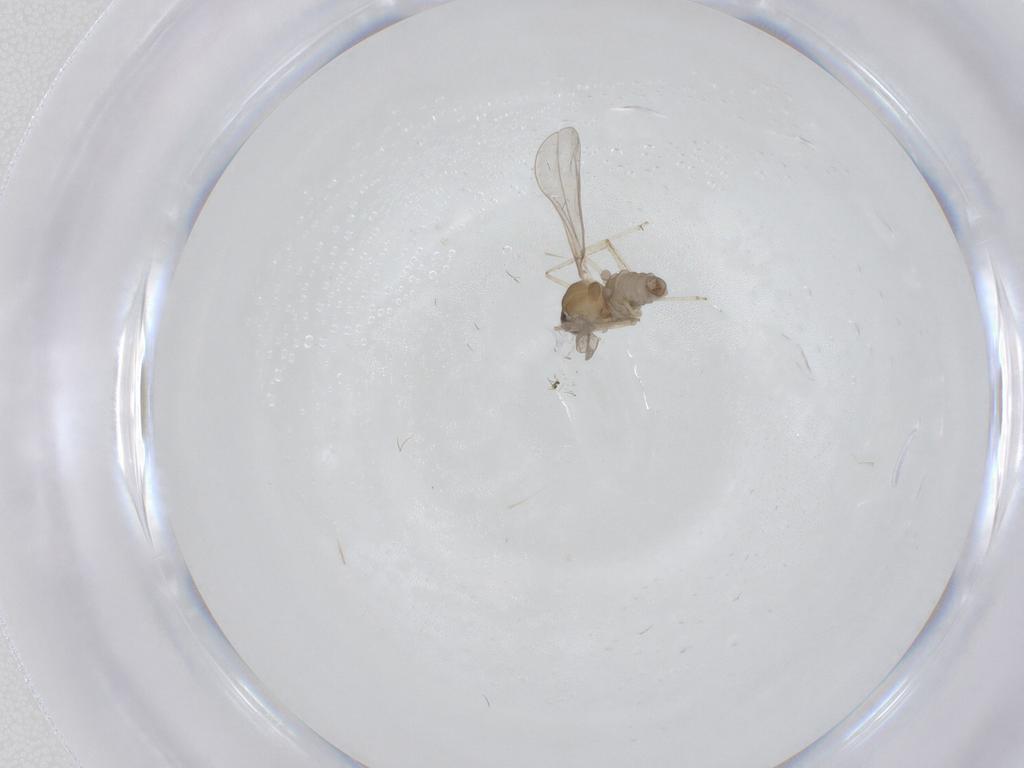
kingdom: Animalia
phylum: Arthropoda
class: Insecta
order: Diptera
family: Cecidomyiidae
